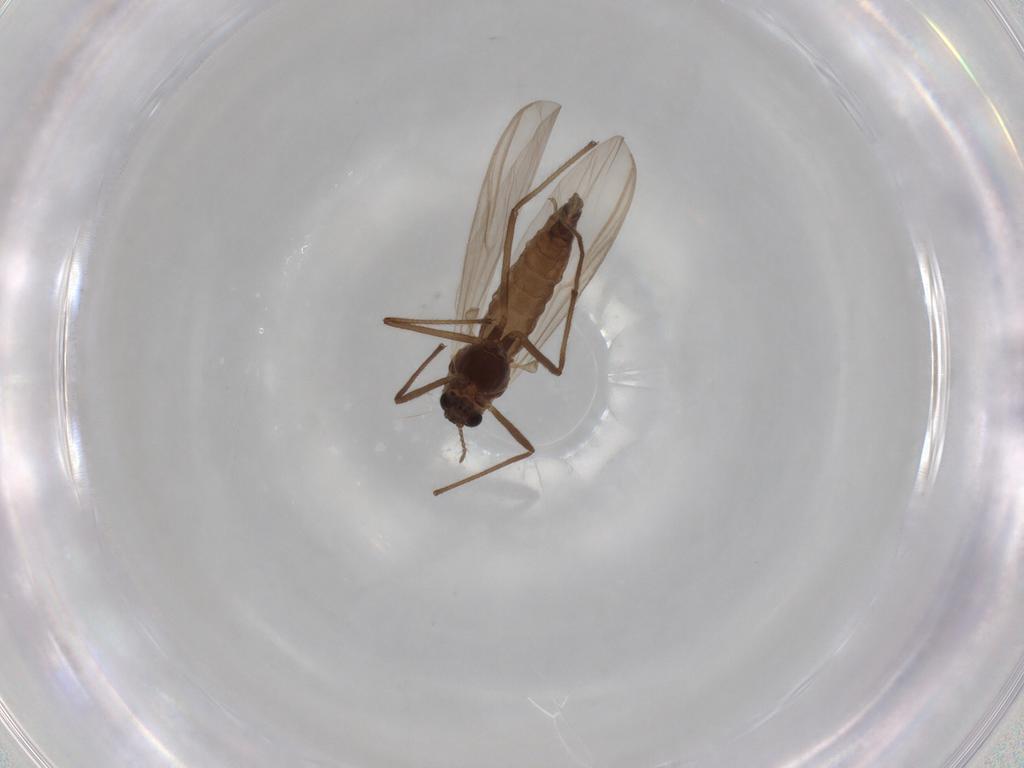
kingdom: Animalia
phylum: Arthropoda
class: Insecta
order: Diptera
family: Chironomidae
